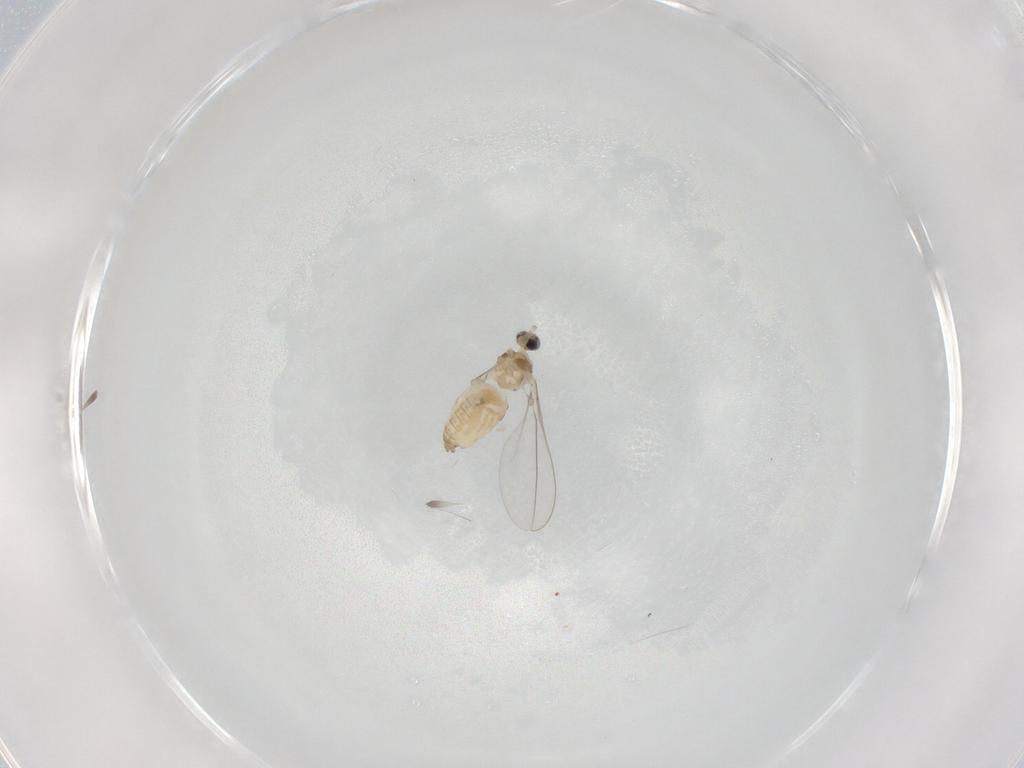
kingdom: Animalia
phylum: Arthropoda
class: Insecta
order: Diptera
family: Cecidomyiidae
